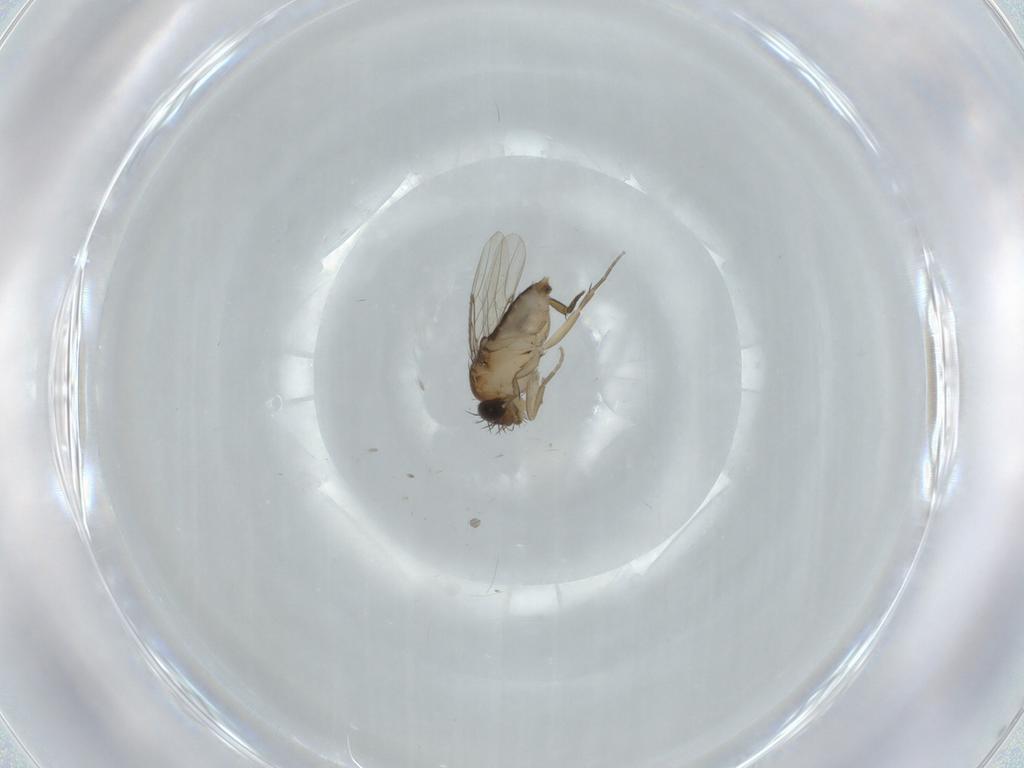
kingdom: Animalia
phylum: Arthropoda
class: Insecta
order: Diptera
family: Phoridae
